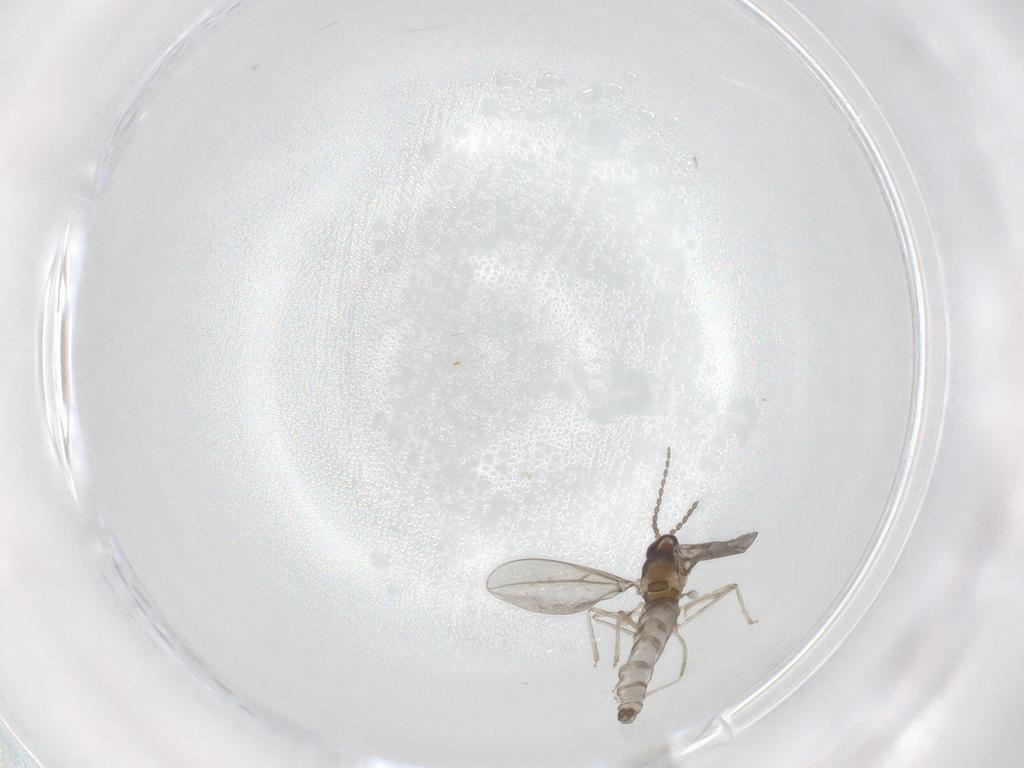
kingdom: Animalia
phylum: Arthropoda
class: Insecta
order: Diptera
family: Cecidomyiidae
